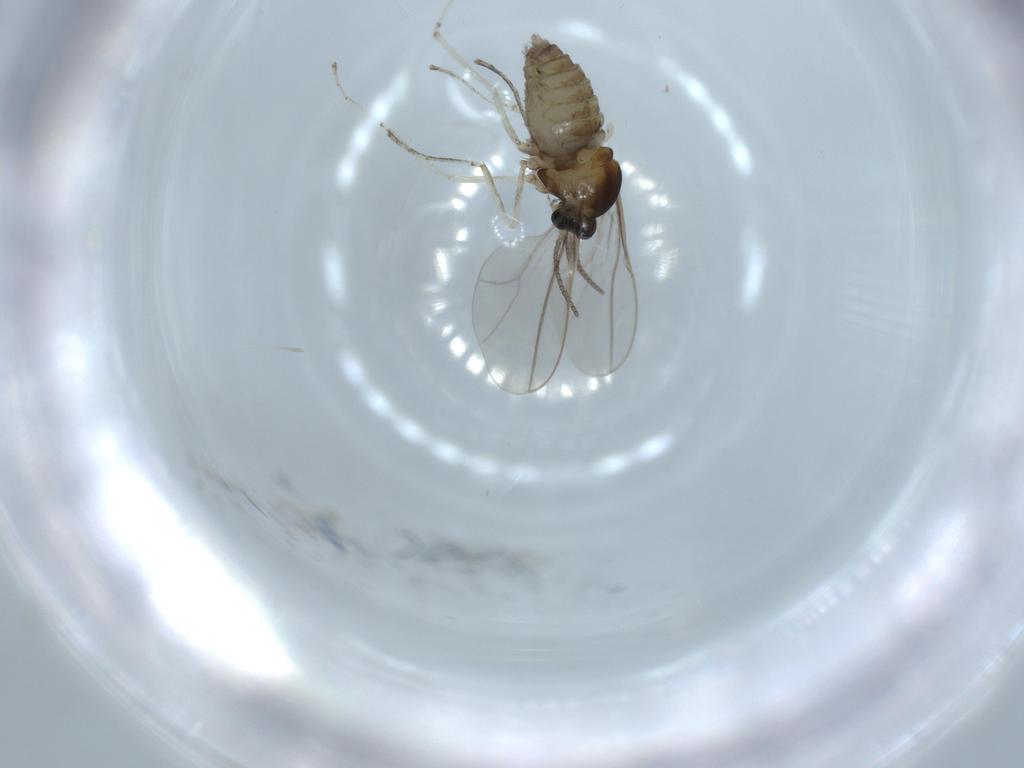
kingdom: Animalia
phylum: Arthropoda
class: Insecta
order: Diptera
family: Cecidomyiidae
